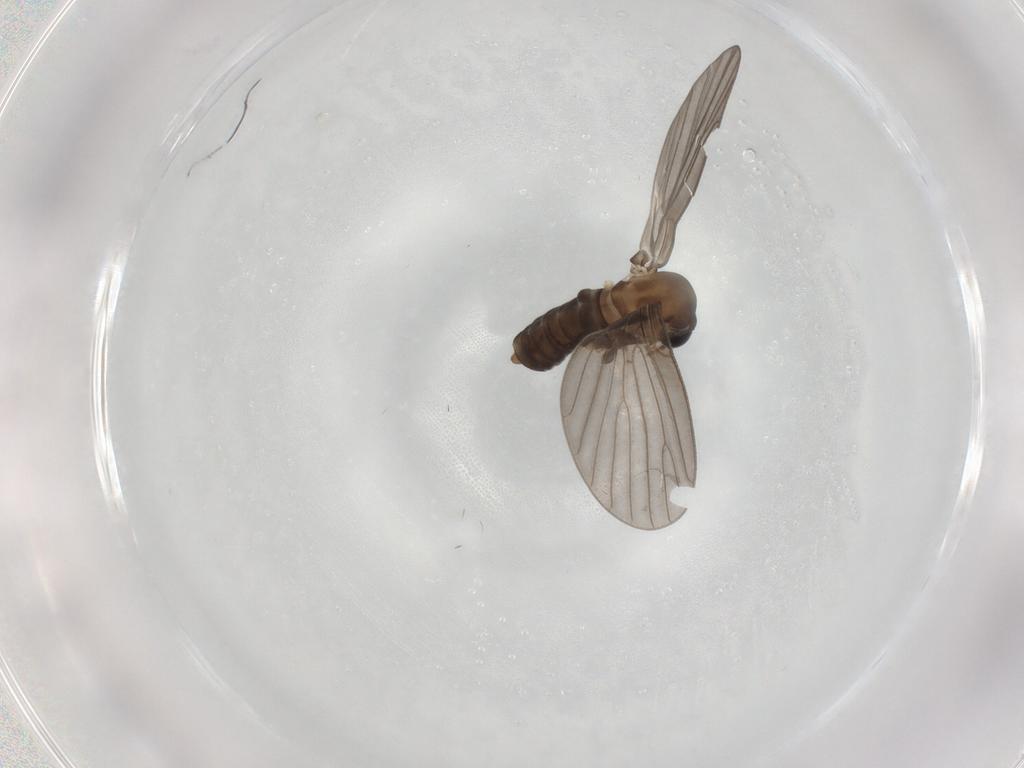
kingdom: Animalia
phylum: Arthropoda
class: Insecta
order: Diptera
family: Psychodidae
